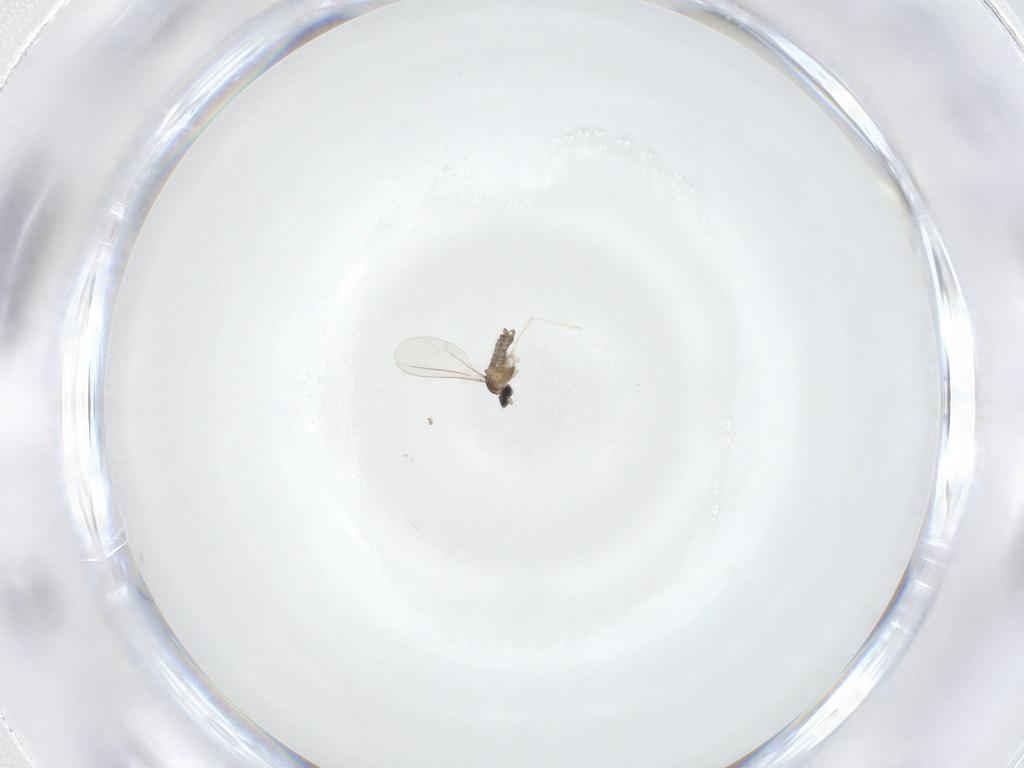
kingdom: Animalia
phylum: Arthropoda
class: Insecta
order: Diptera
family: Cecidomyiidae
